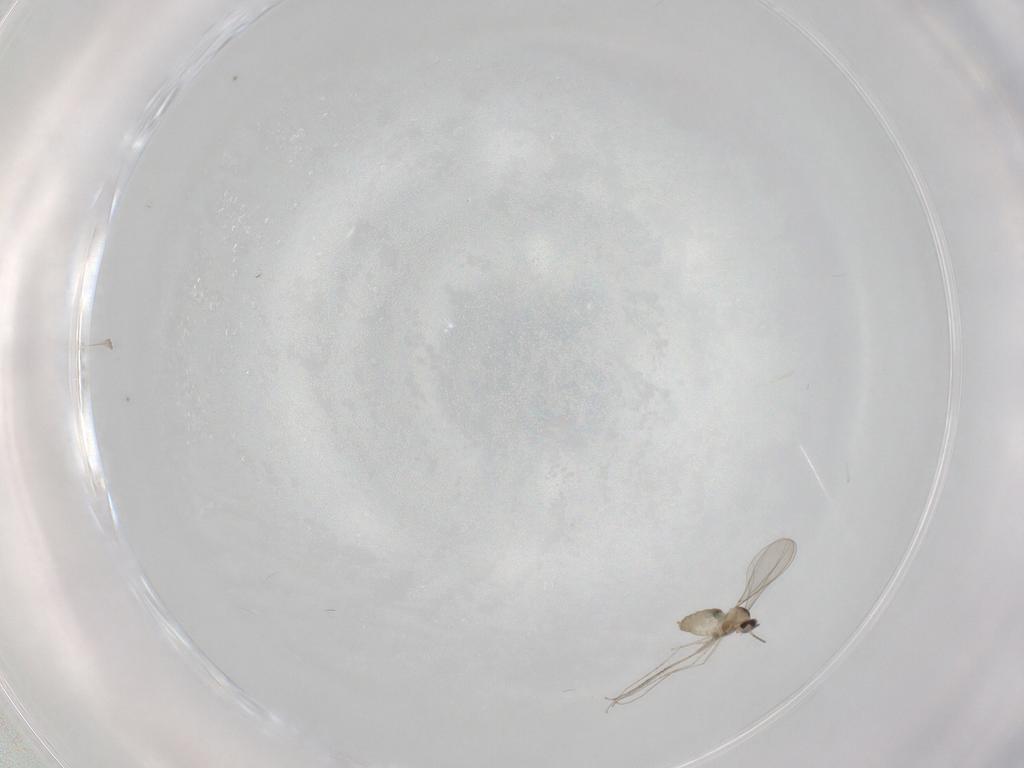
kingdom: Animalia
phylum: Arthropoda
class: Insecta
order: Diptera
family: Cecidomyiidae
